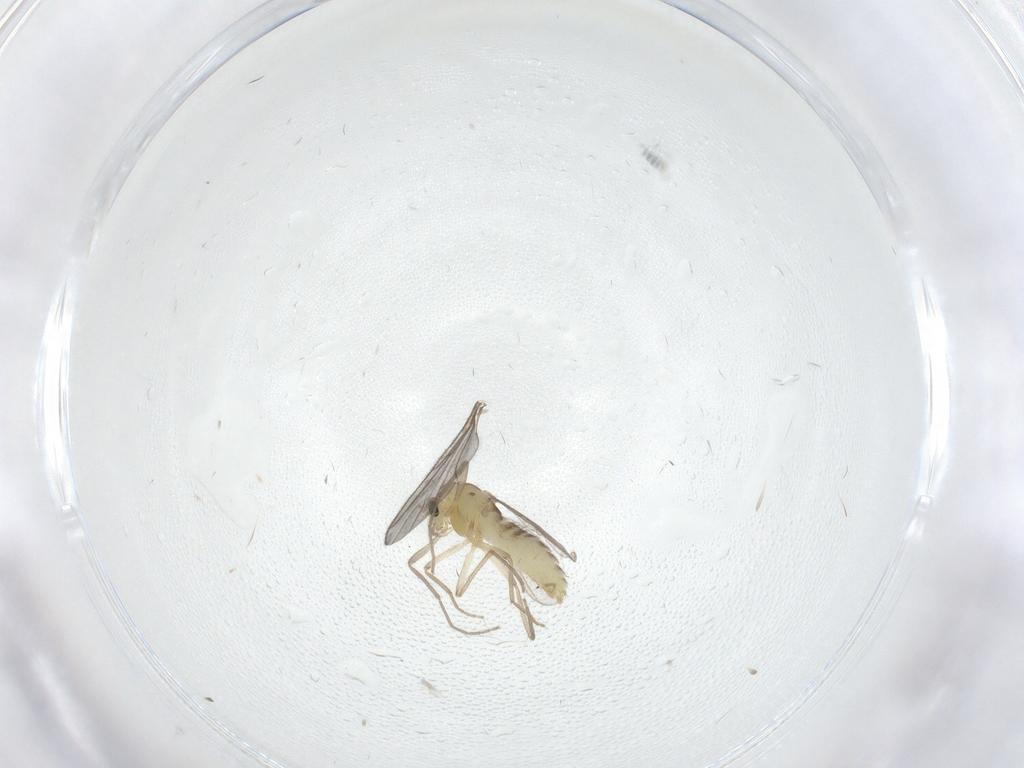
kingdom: Animalia
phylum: Arthropoda
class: Insecta
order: Diptera
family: Chironomidae
